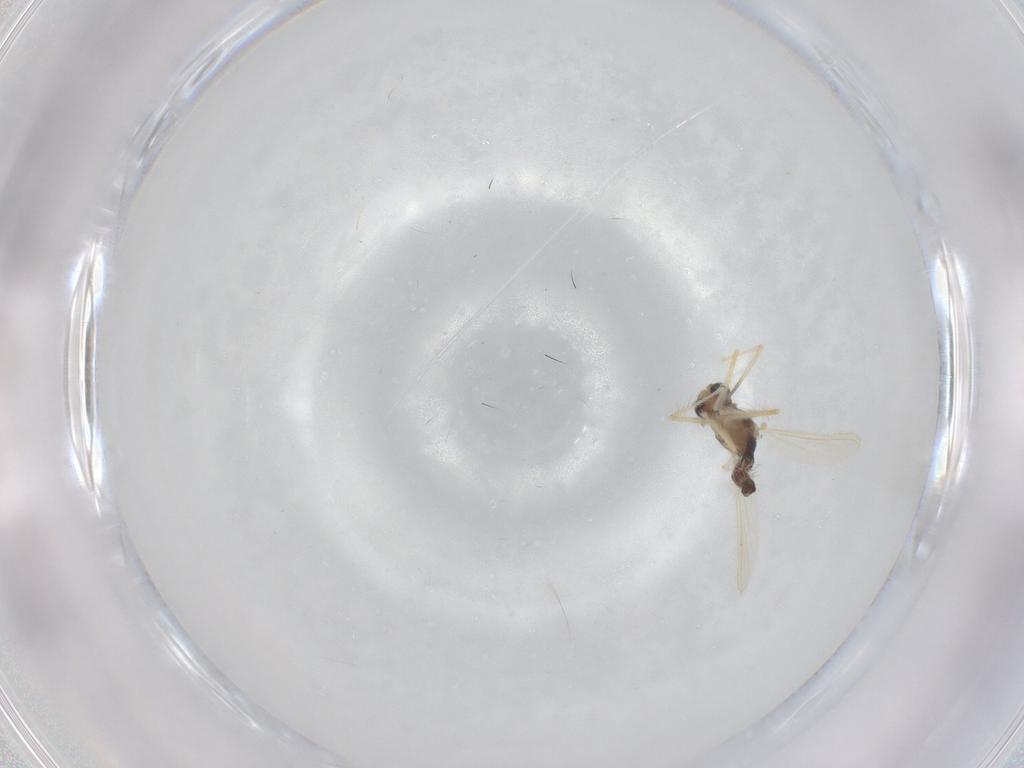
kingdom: Animalia
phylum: Arthropoda
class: Insecta
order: Diptera
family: Chironomidae
